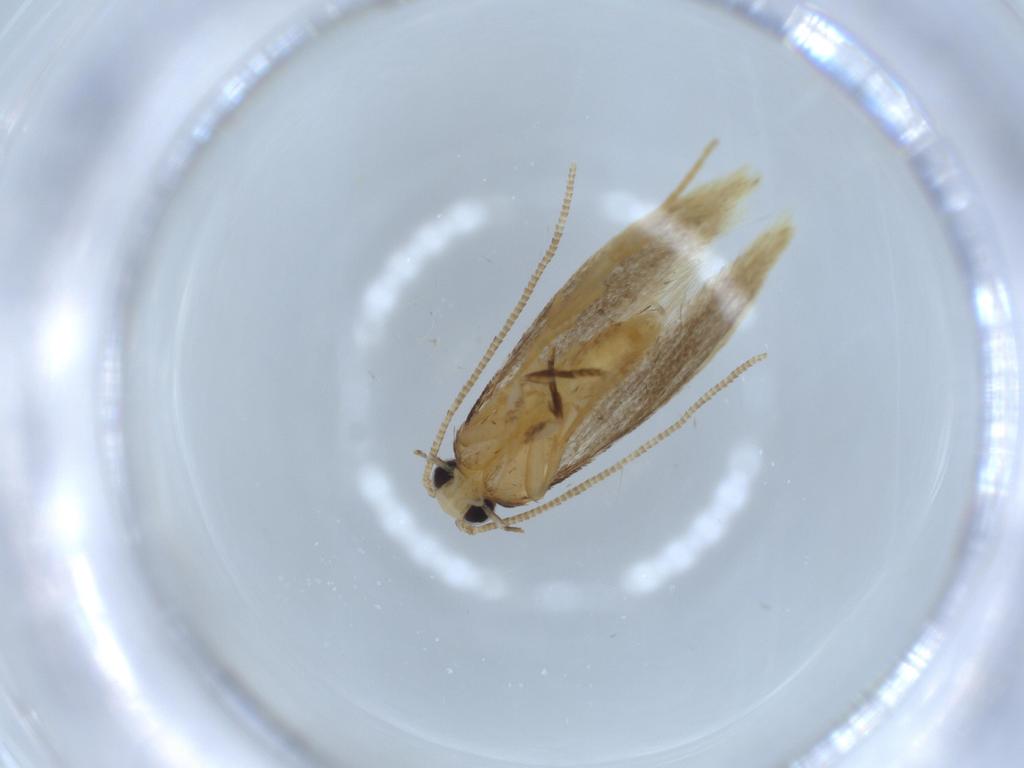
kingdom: Animalia
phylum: Arthropoda
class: Insecta
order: Lepidoptera
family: Tineidae
